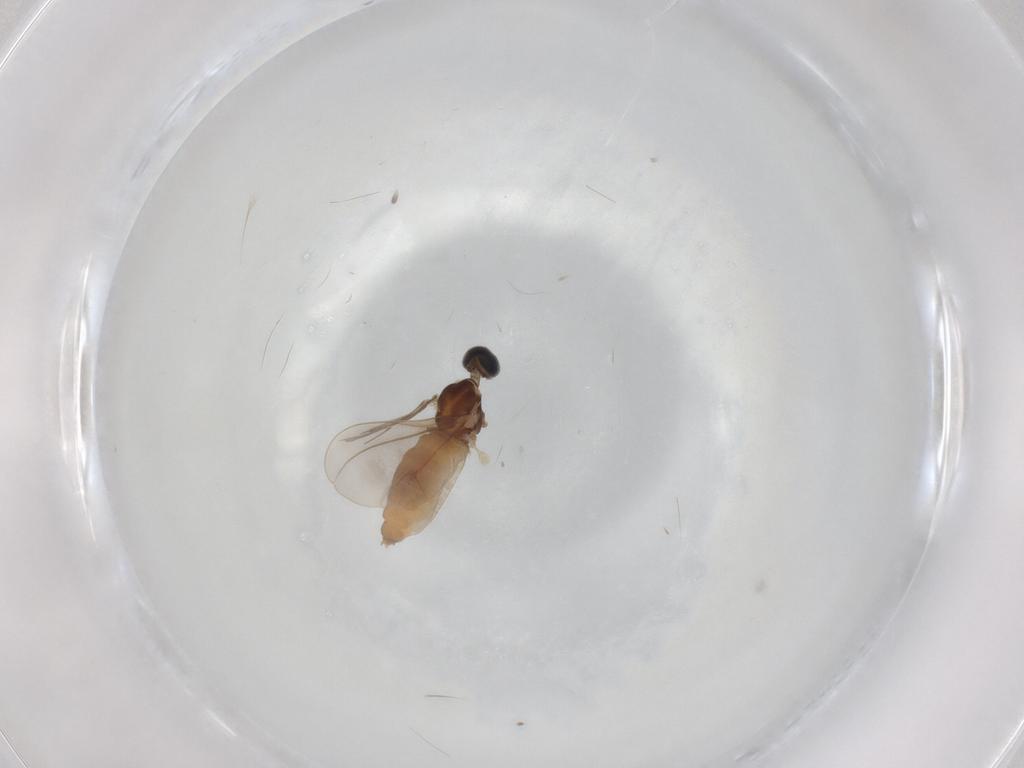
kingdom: Animalia
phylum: Arthropoda
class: Insecta
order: Diptera
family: Cecidomyiidae
